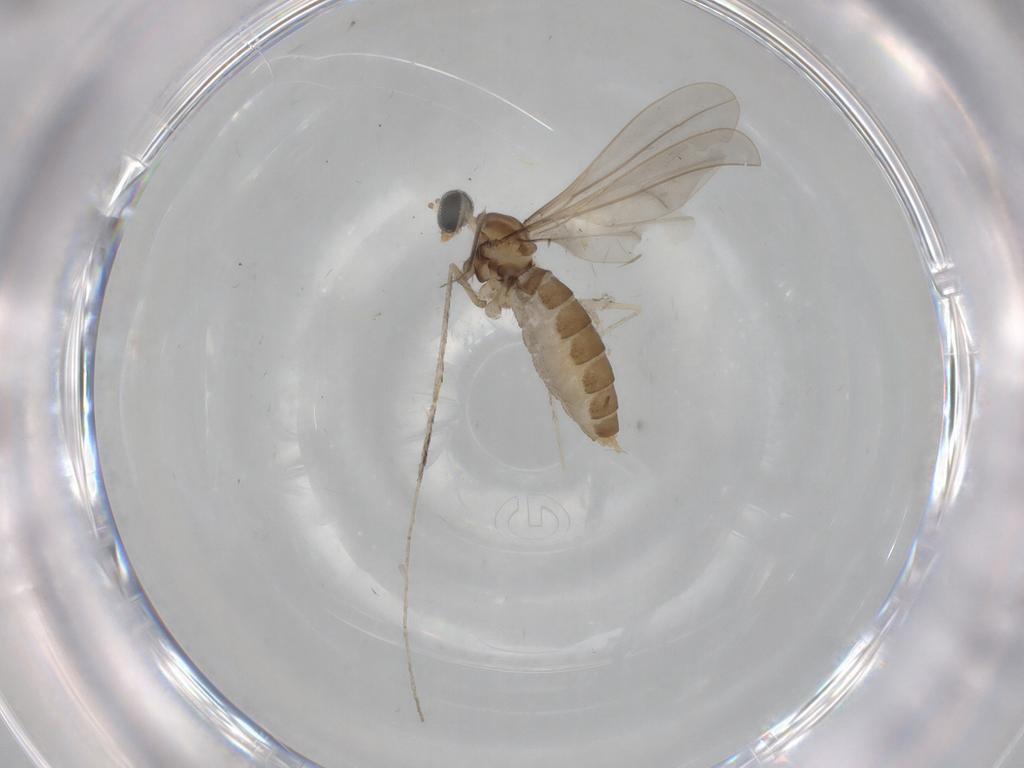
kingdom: Animalia
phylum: Arthropoda
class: Insecta
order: Diptera
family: Cecidomyiidae
